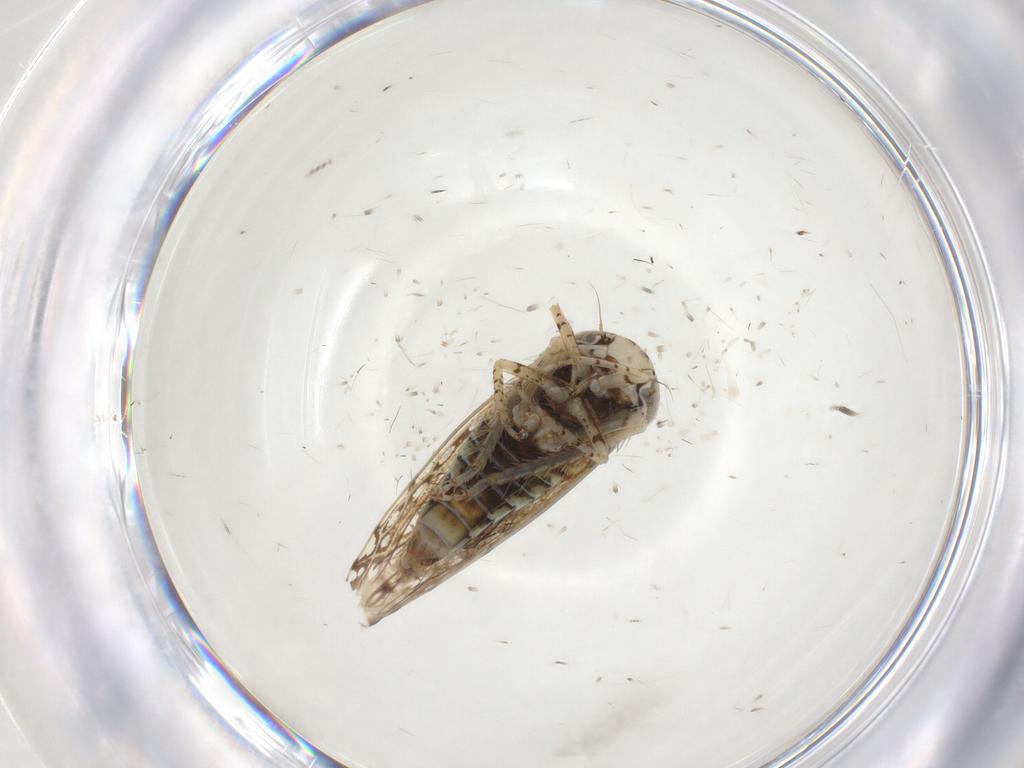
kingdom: Animalia
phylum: Arthropoda
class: Insecta
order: Hemiptera
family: Cicadellidae
